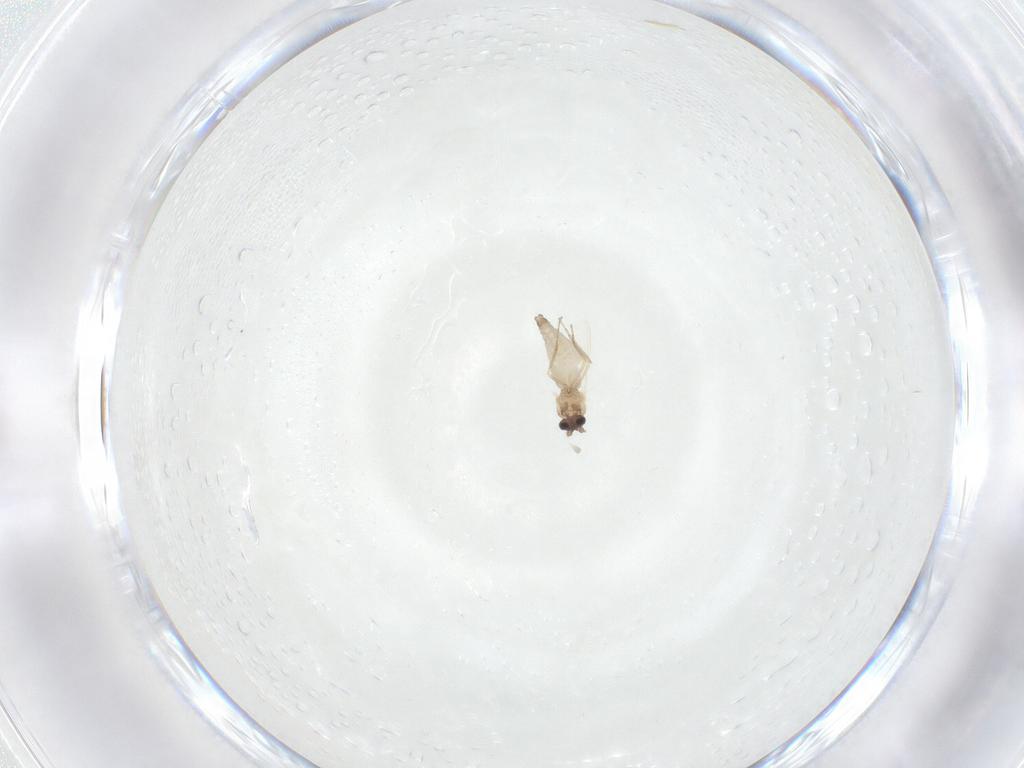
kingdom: Animalia
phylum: Arthropoda
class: Insecta
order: Diptera
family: Ceratopogonidae
